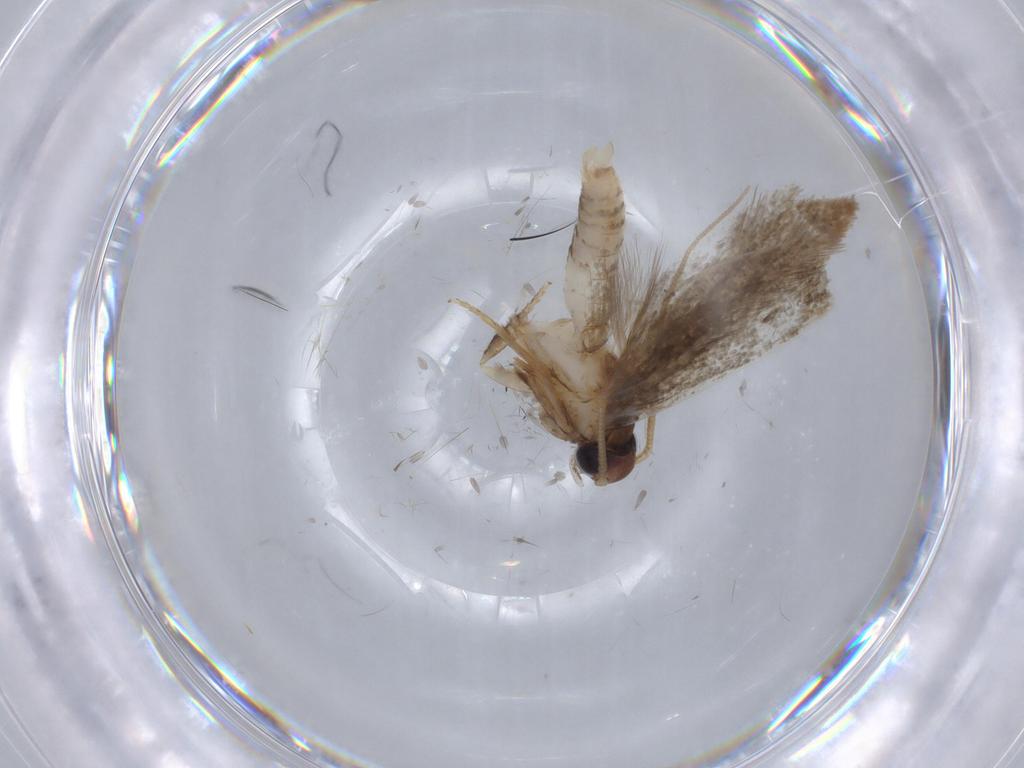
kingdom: Animalia
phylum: Arthropoda
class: Insecta
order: Lepidoptera
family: Coleophoridae
